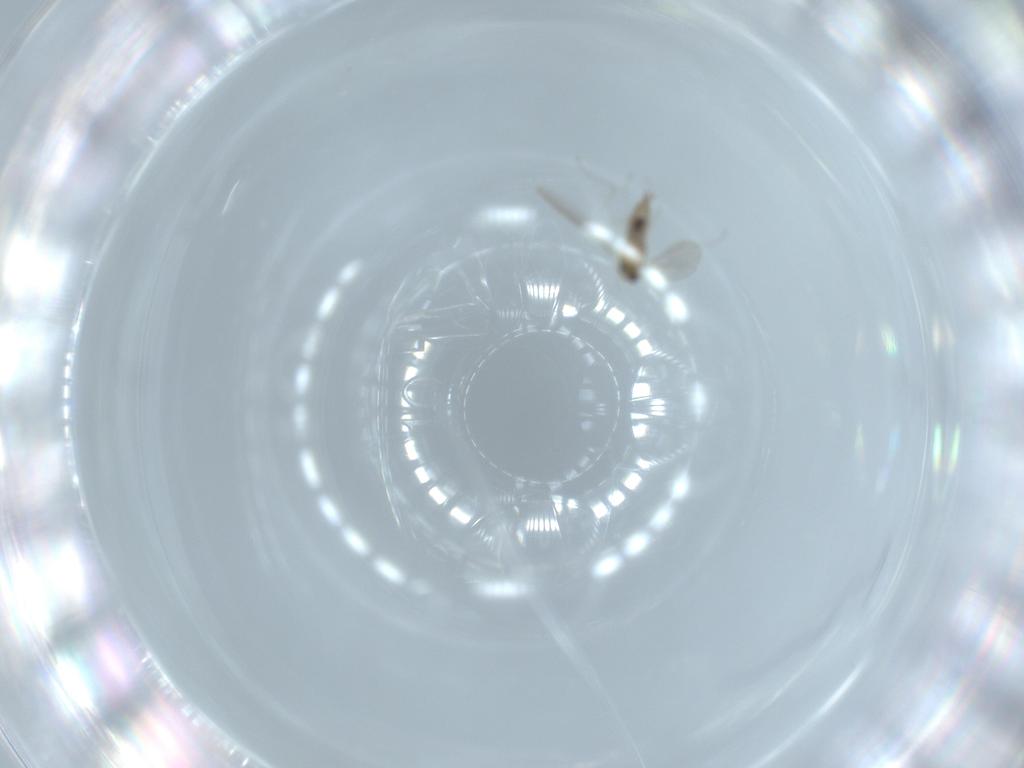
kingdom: Animalia
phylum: Arthropoda
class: Insecta
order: Diptera
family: Cecidomyiidae
